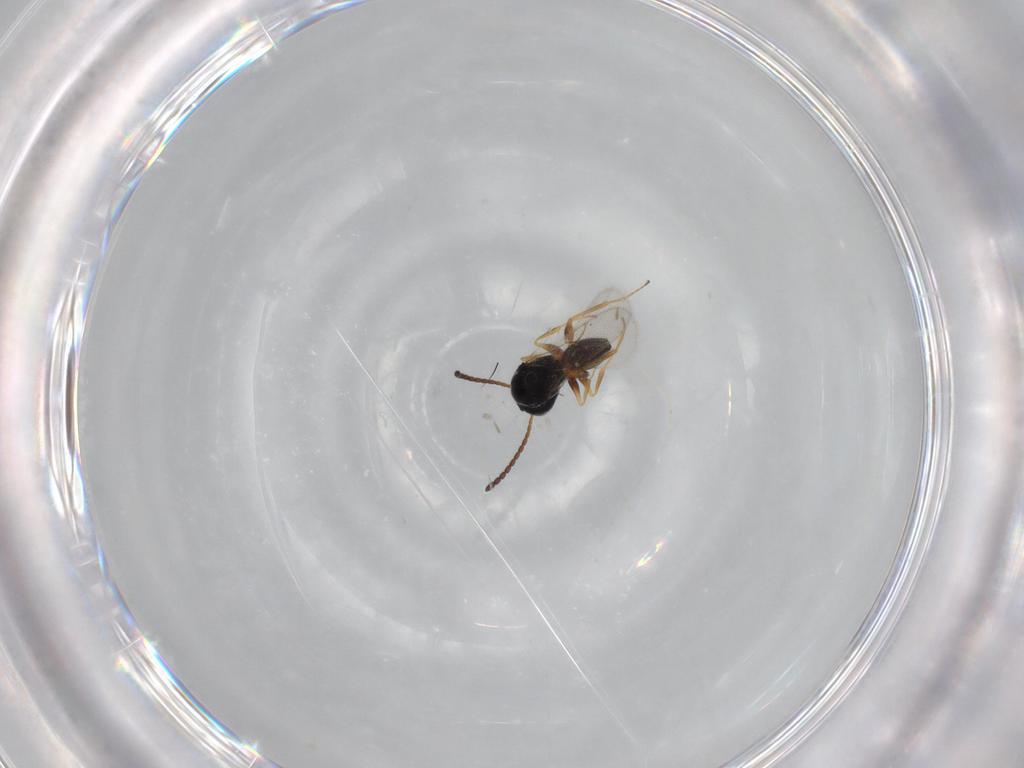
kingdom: Animalia
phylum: Arthropoda
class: Insecta
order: Hymenoptera
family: Figitidae
